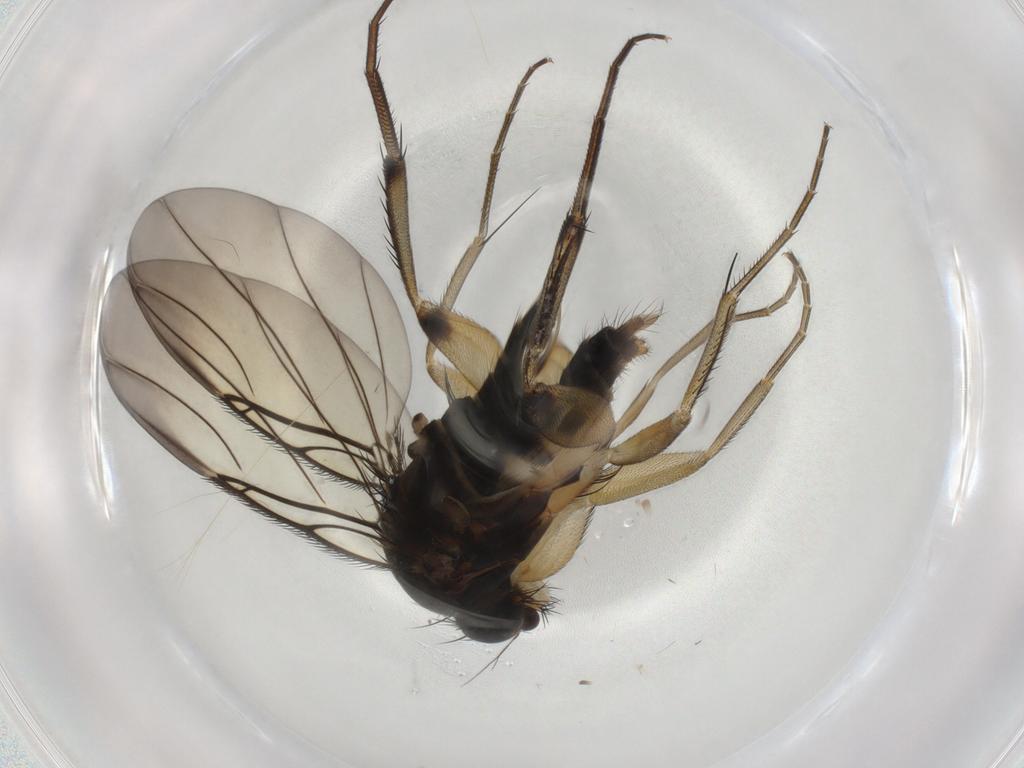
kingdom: Animalia
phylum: Arthropoda
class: Insecta
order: Diptera
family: Phoridae
